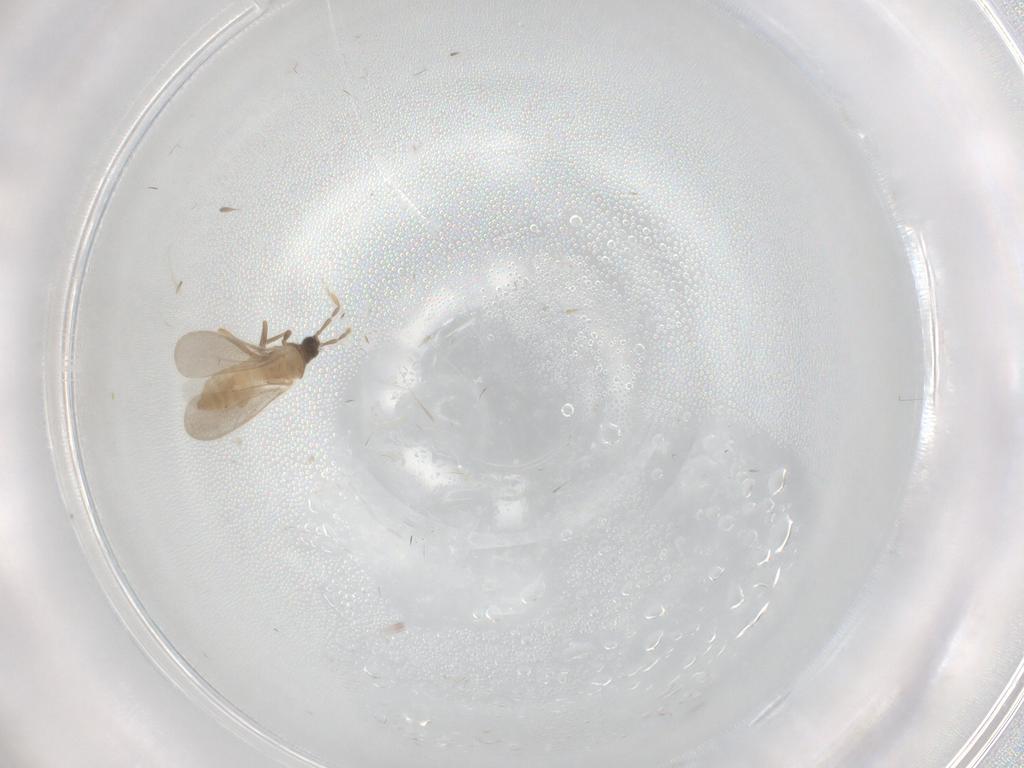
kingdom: Animalia
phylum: Arthropoda
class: Insecta
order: Hemiptera
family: Enicocephalidae
